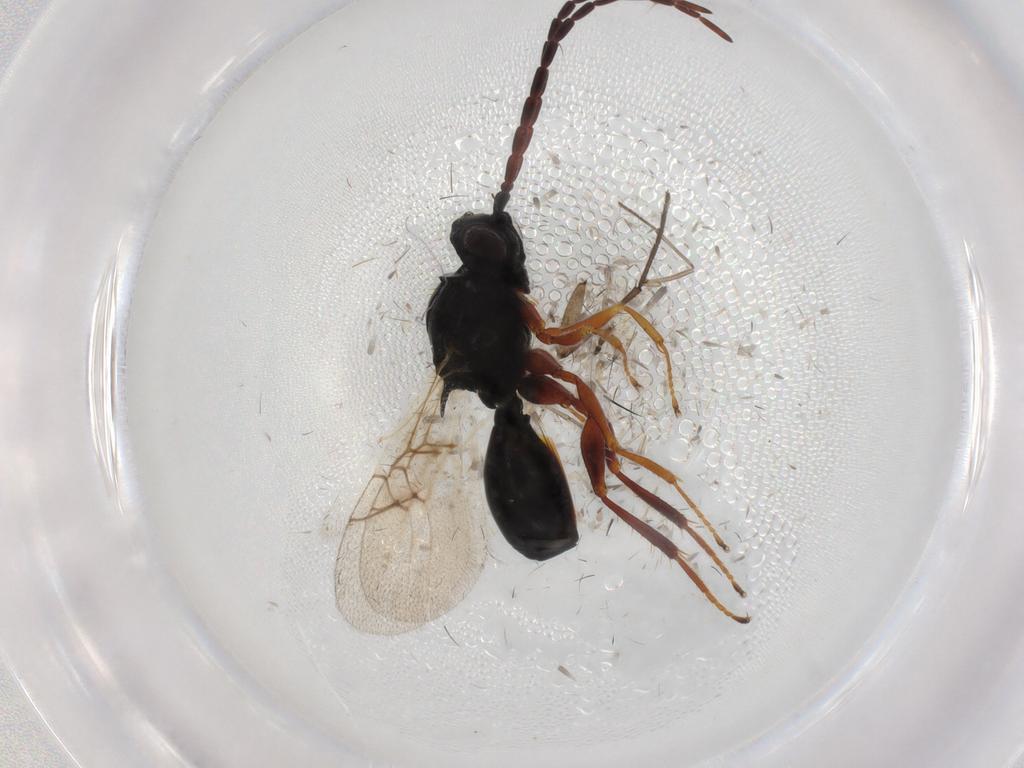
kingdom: Animalia
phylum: Arthropoda
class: Insecta
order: Hymenoptera
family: Figitidae
